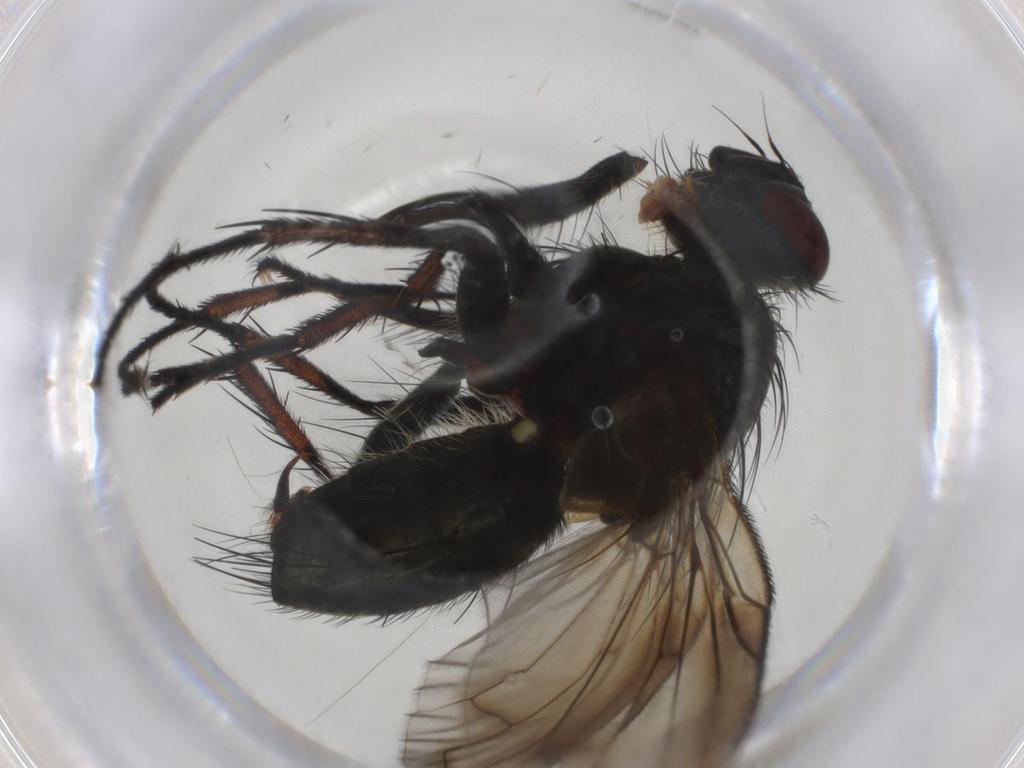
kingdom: Animalia
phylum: Arthropoda
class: Insecta
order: Diptera
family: Tachinidae
